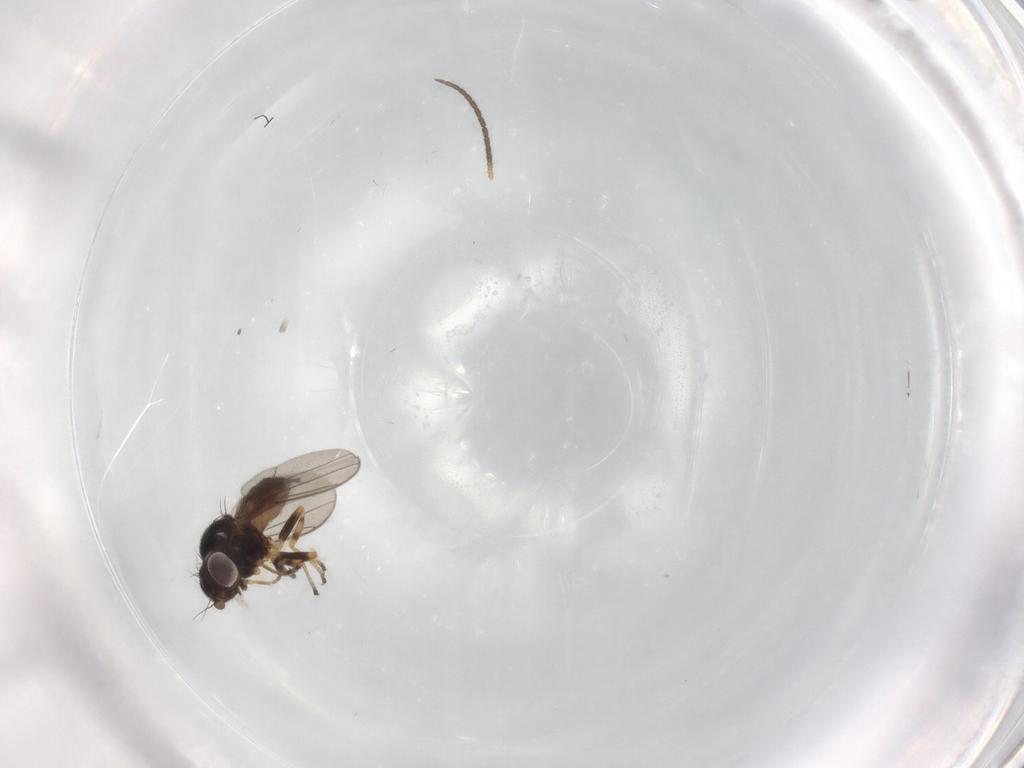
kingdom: Animalia
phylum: Arthropoda
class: Insecta
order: Diptera
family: Chloropidae
